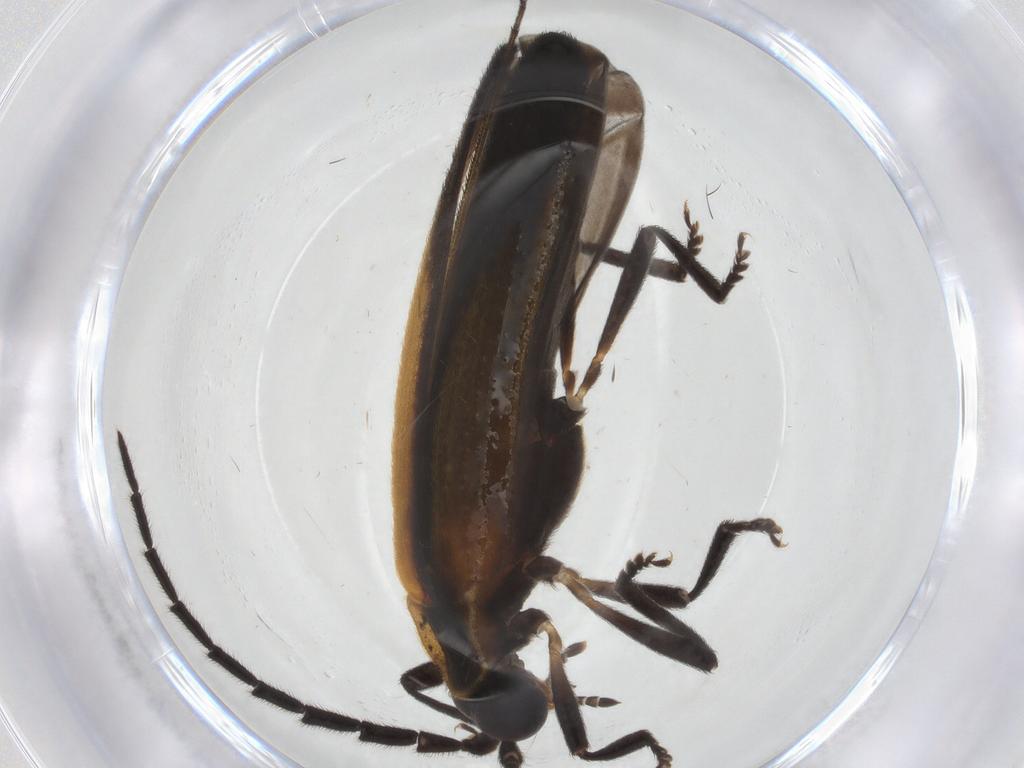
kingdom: Animalia
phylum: Arthropoda
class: Insecta
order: Coleoptera
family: Lycidae
